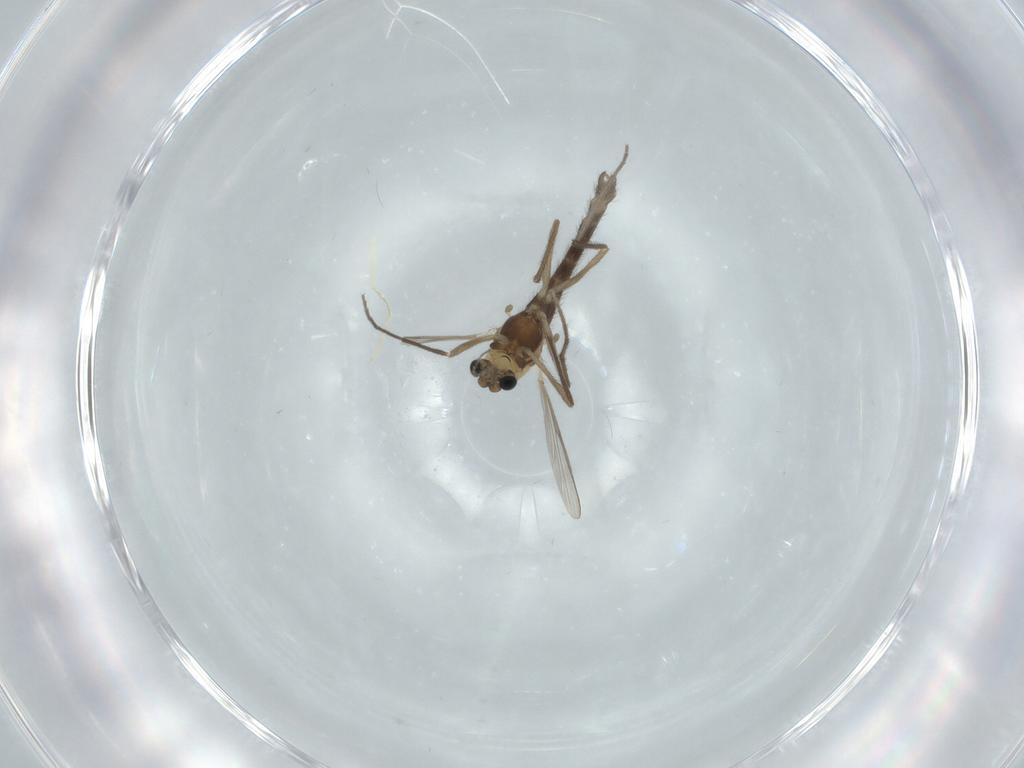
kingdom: Animalia
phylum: Arthropoda
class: Insecta
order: Diptera
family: Chironomidae
